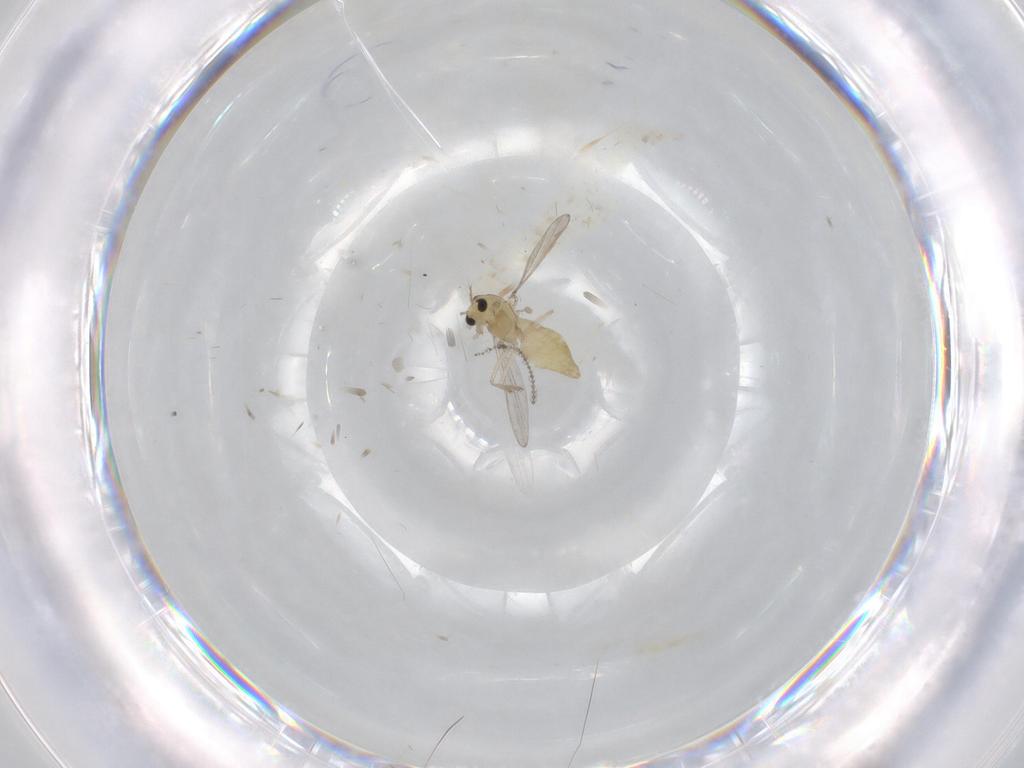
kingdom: Animalia
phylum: Arthropoda
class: Insecta
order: Diptera
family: Chironomidae
